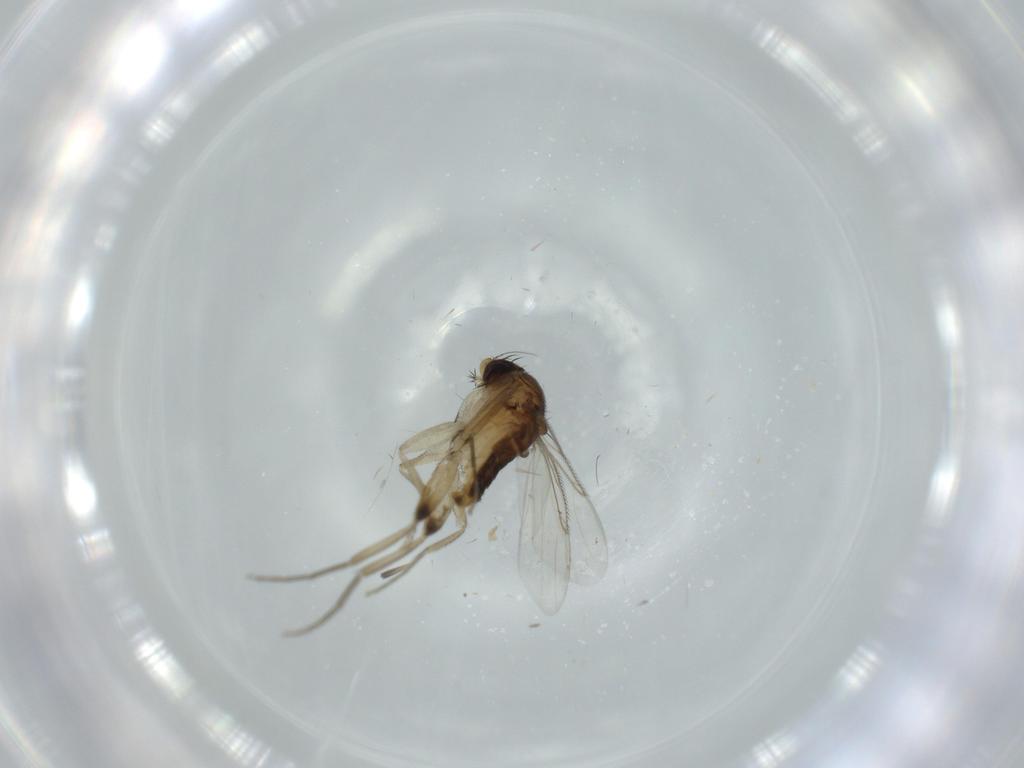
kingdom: Animalia
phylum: Arthropoda
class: Insecta
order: Diptera
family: Phoridae
